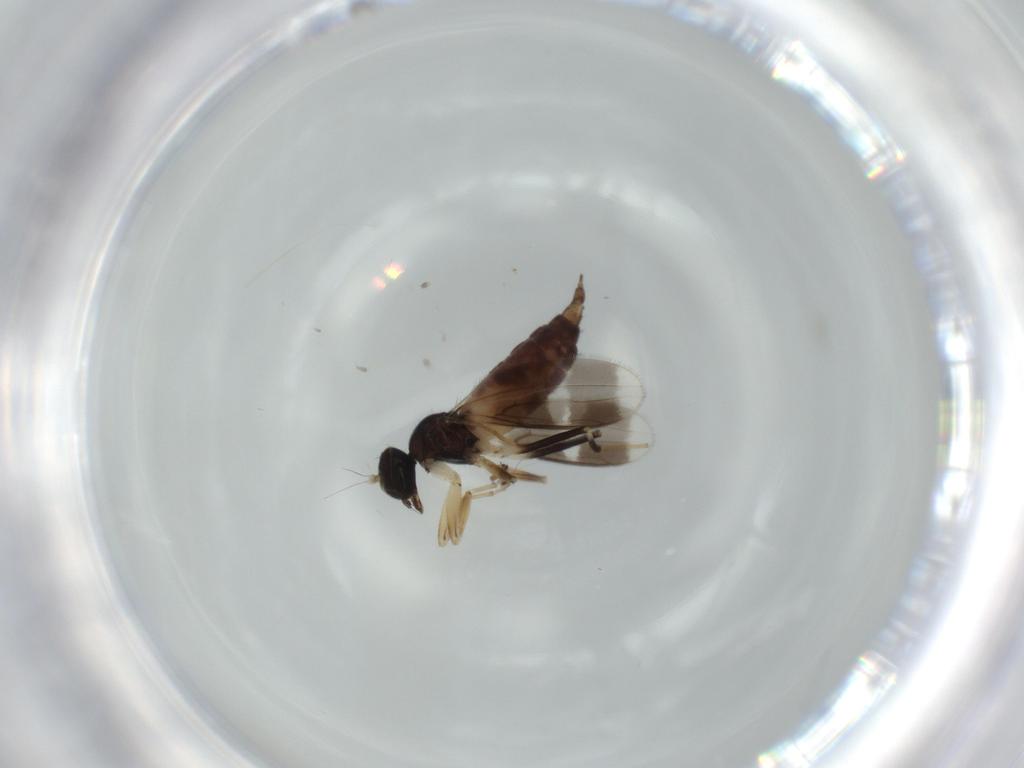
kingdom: Animalia
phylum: Arthropoda
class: Insecta
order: Diptera
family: Hybotidae
